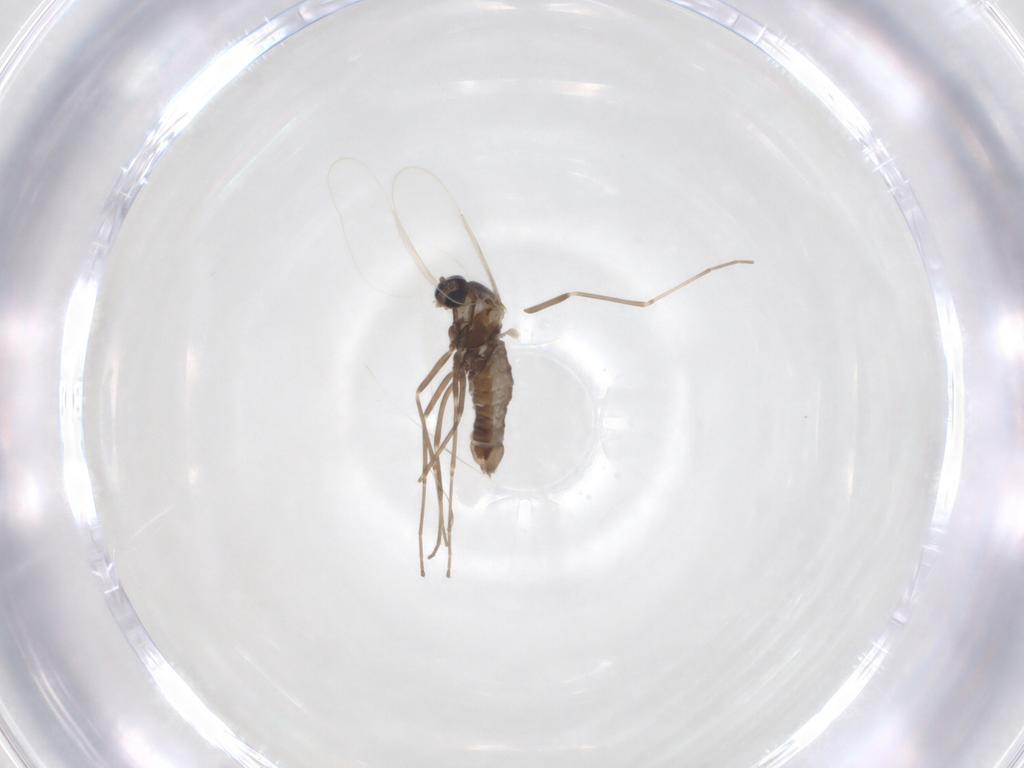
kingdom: Animalia
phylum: Arthropoda
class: Insecta
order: Diptera
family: Cecidomyiidae
